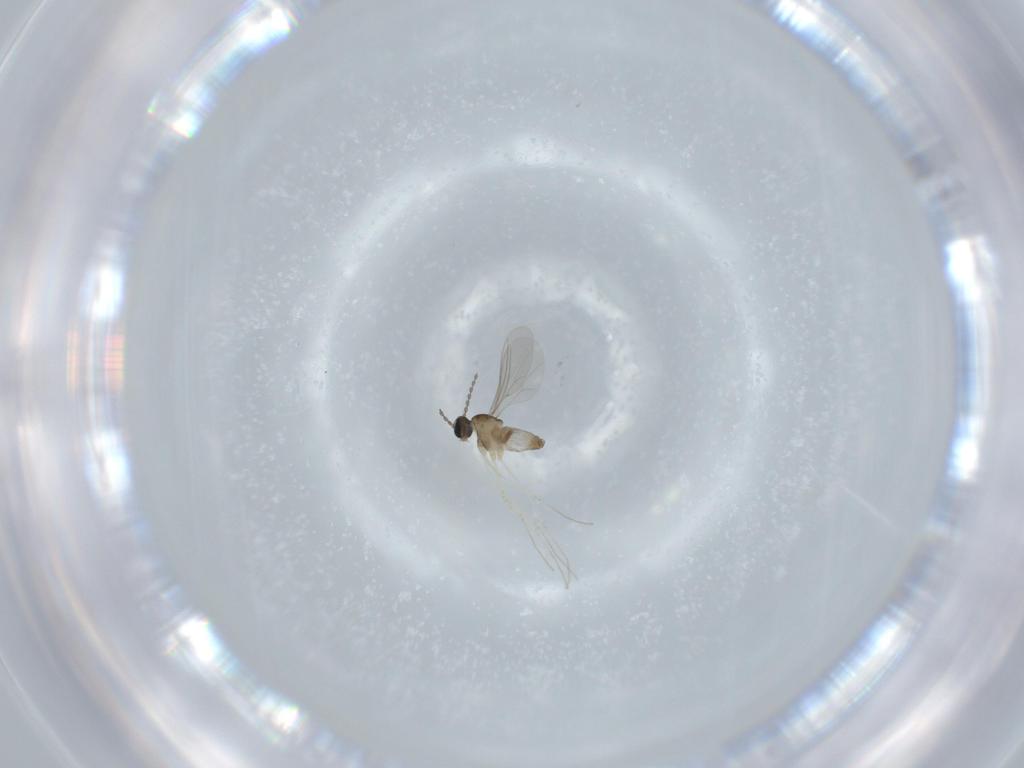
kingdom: Animalia
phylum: Arthropoda
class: Insecta
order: Diptera
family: Cecidomyiidae
